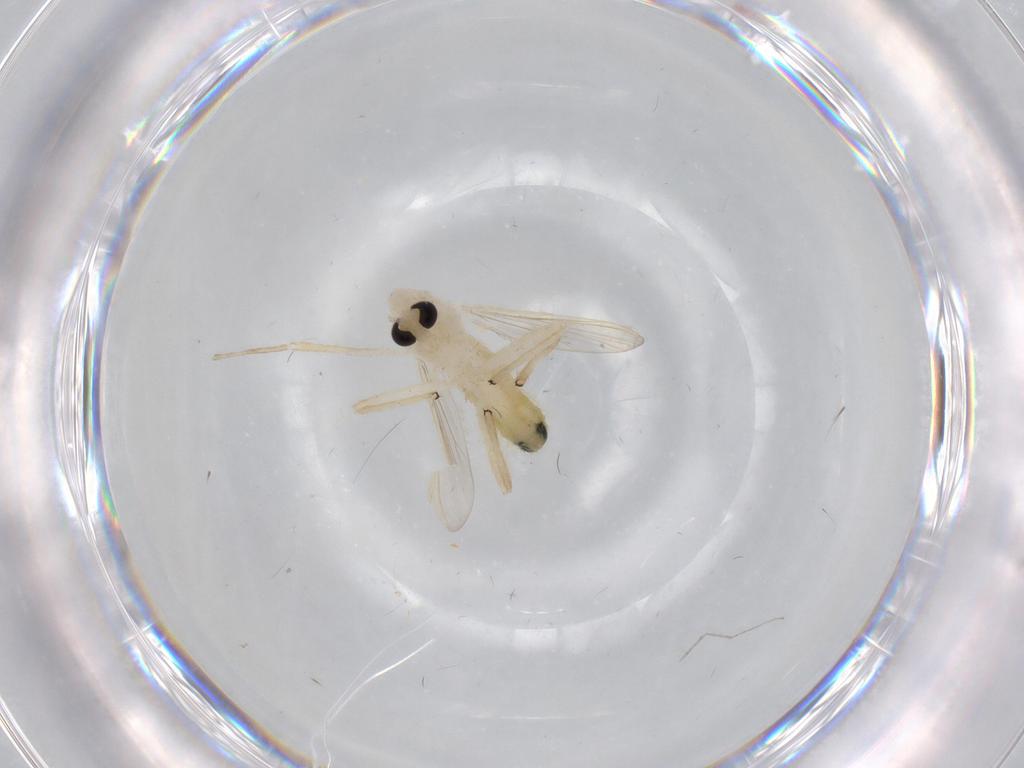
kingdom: Animalia
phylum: Arthropoda
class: Insecta
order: Diptera
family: Chironomidae
